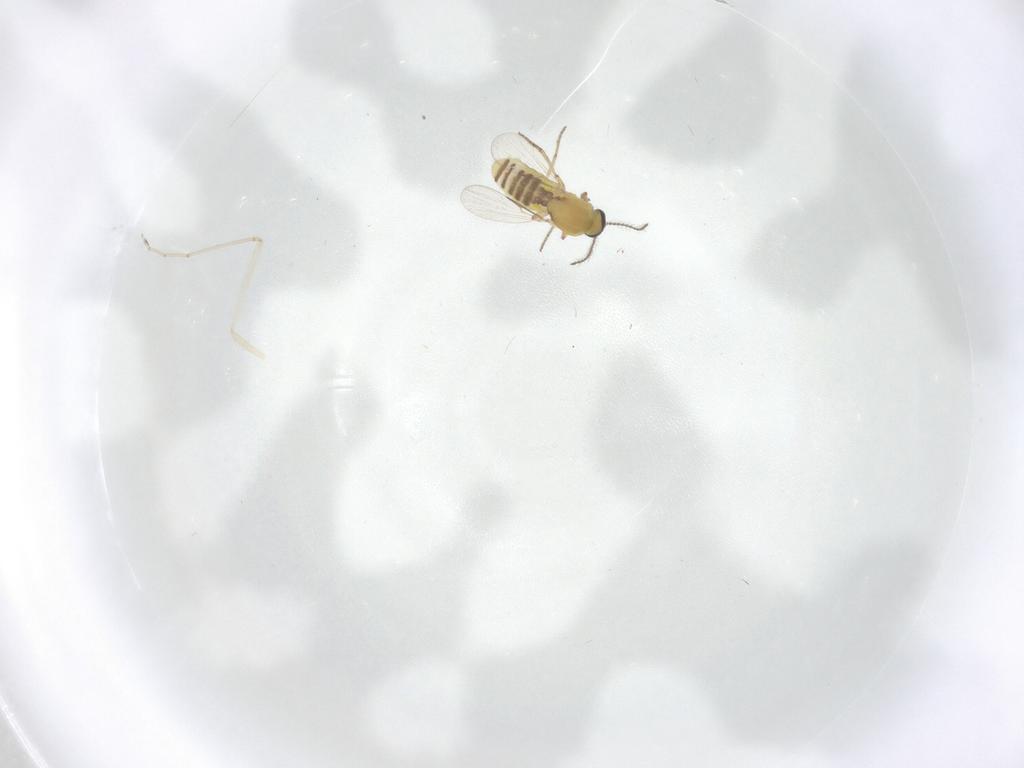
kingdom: Animalia
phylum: Arthropoda
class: Insecta
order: Diptera
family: Ceratopogonidae
